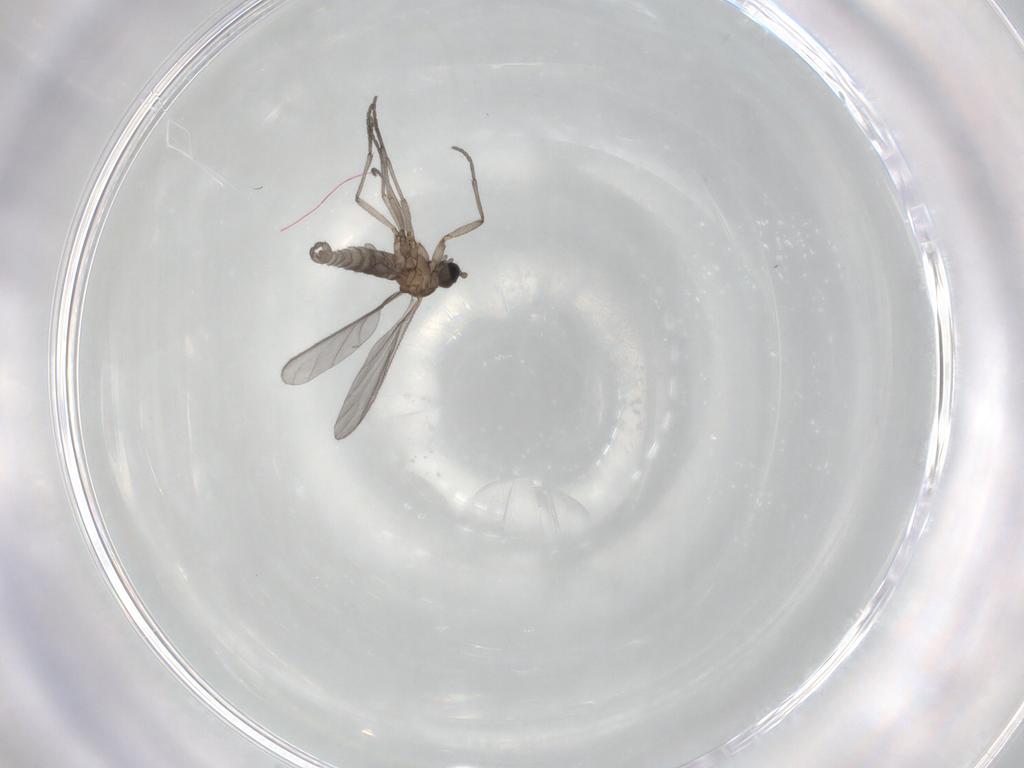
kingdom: Animalia
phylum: Arthropoda
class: Insecta
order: Diptera
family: Sciaridae
